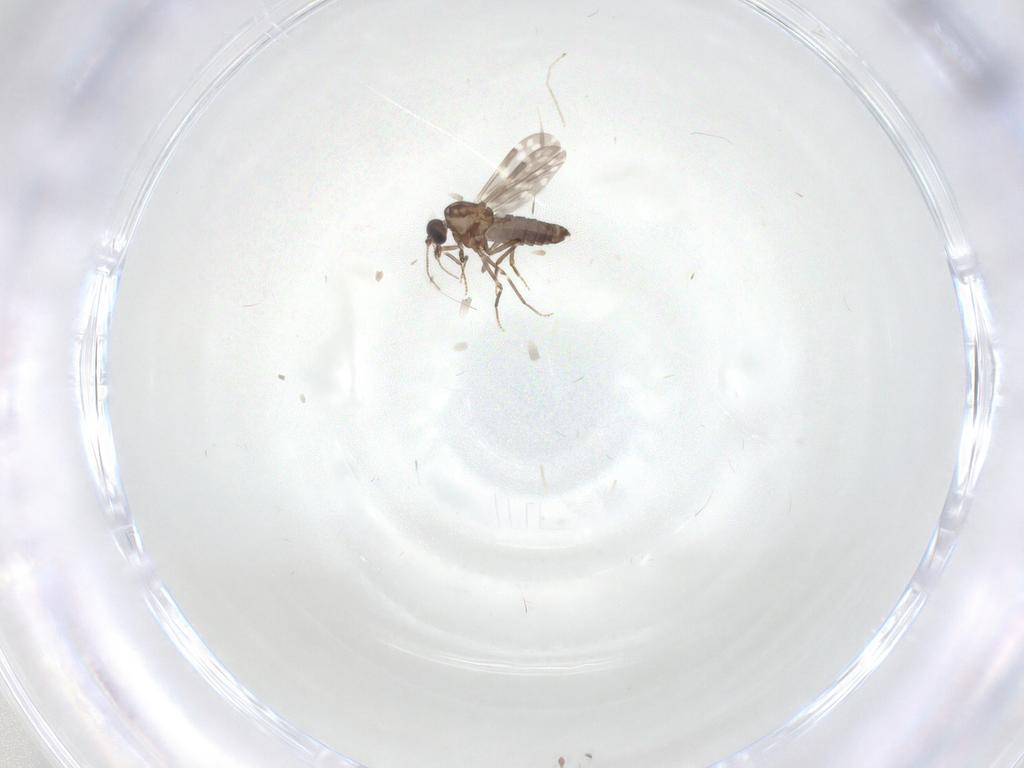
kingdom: Animalia
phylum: Arthropoda
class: Insecta
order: Diptera
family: Ceratopogonidae
